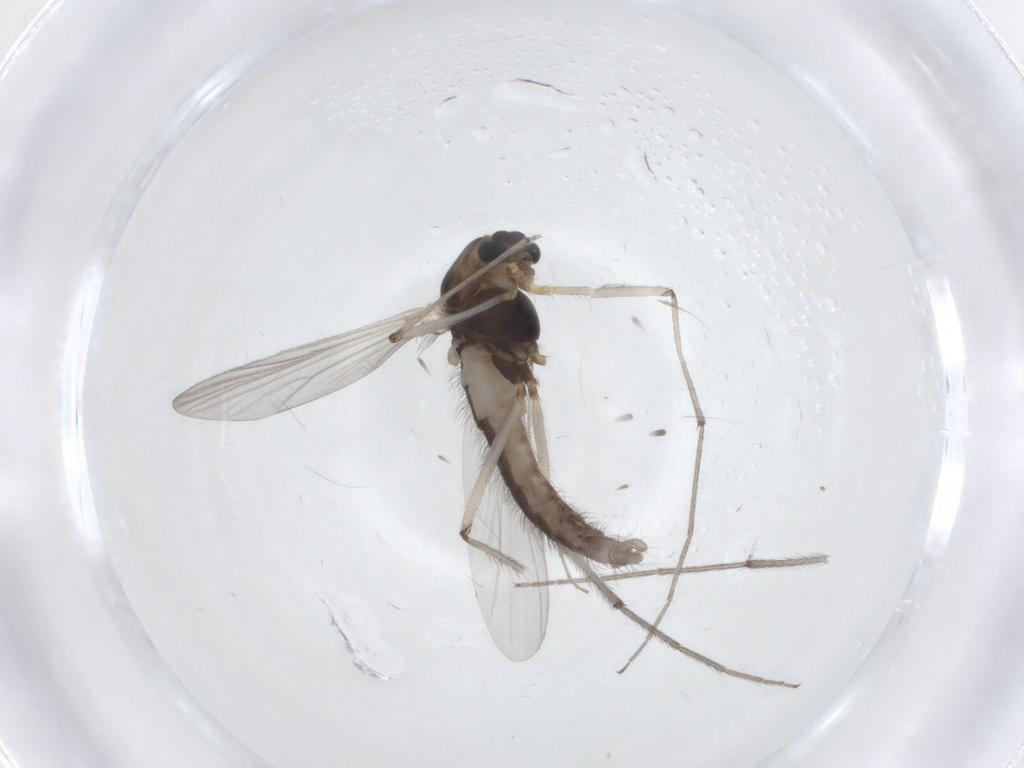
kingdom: Animalia
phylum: Arthropoda
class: Insecta
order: Diptera
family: Chironomidae
